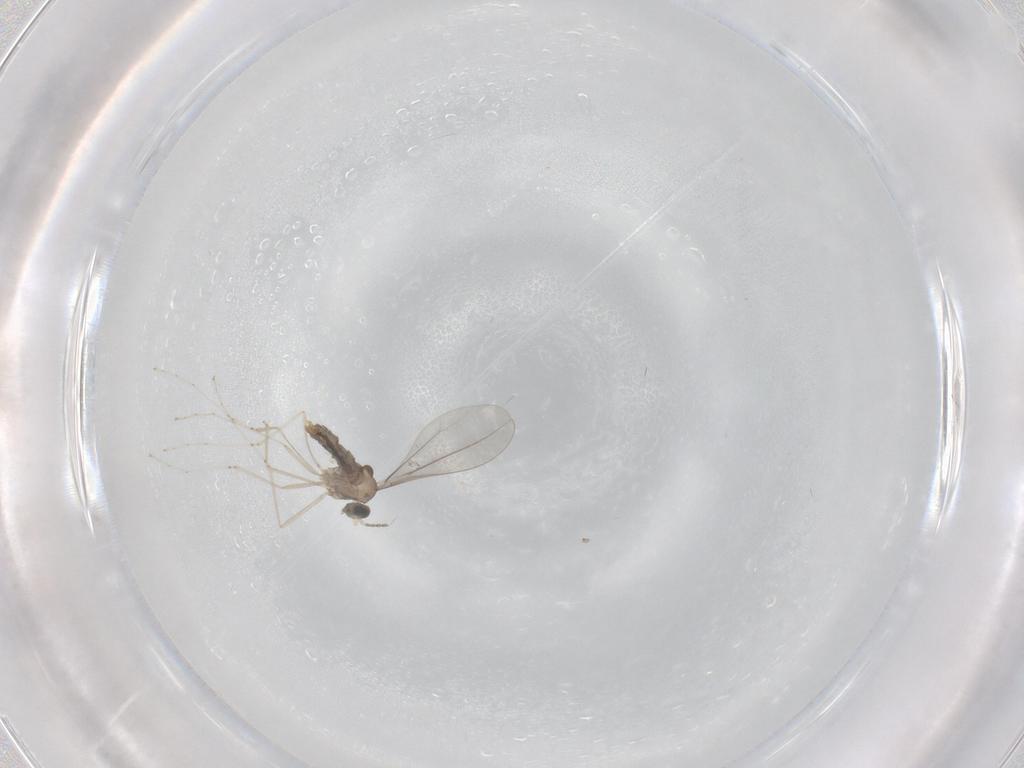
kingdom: Animalia
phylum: Arthropoda
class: Insecta
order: Diptera
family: Cecidomyiidae
